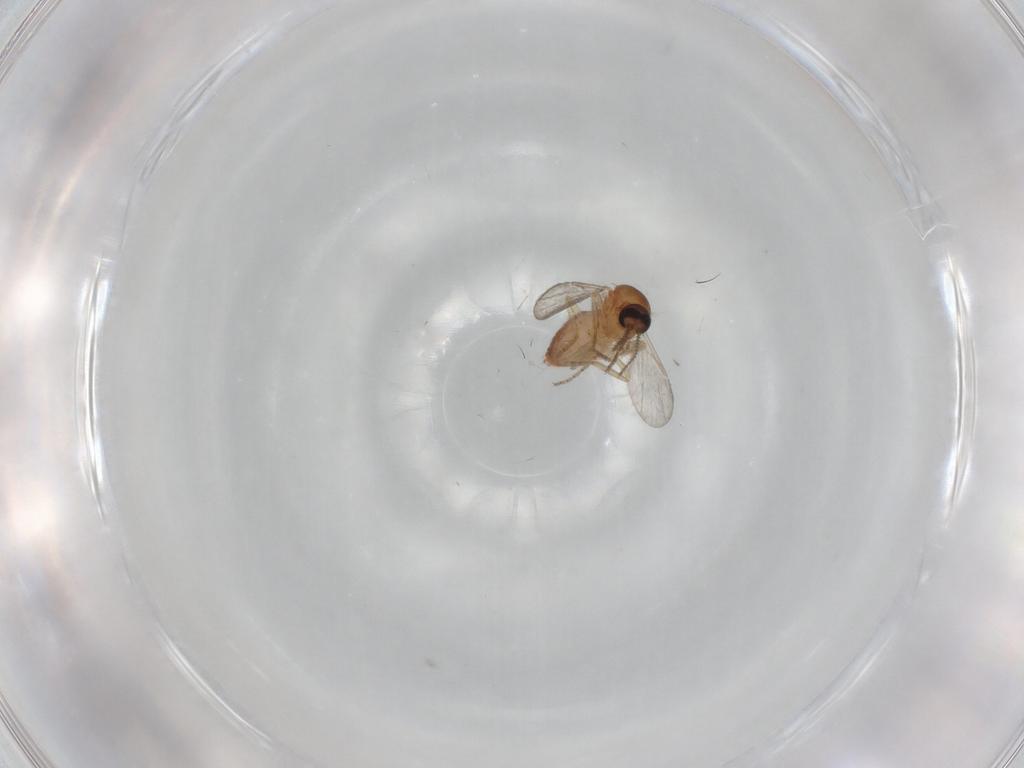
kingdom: Animalia
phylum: Arthropoda
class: Insecta
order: Diptera
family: Ceratopogonidae
